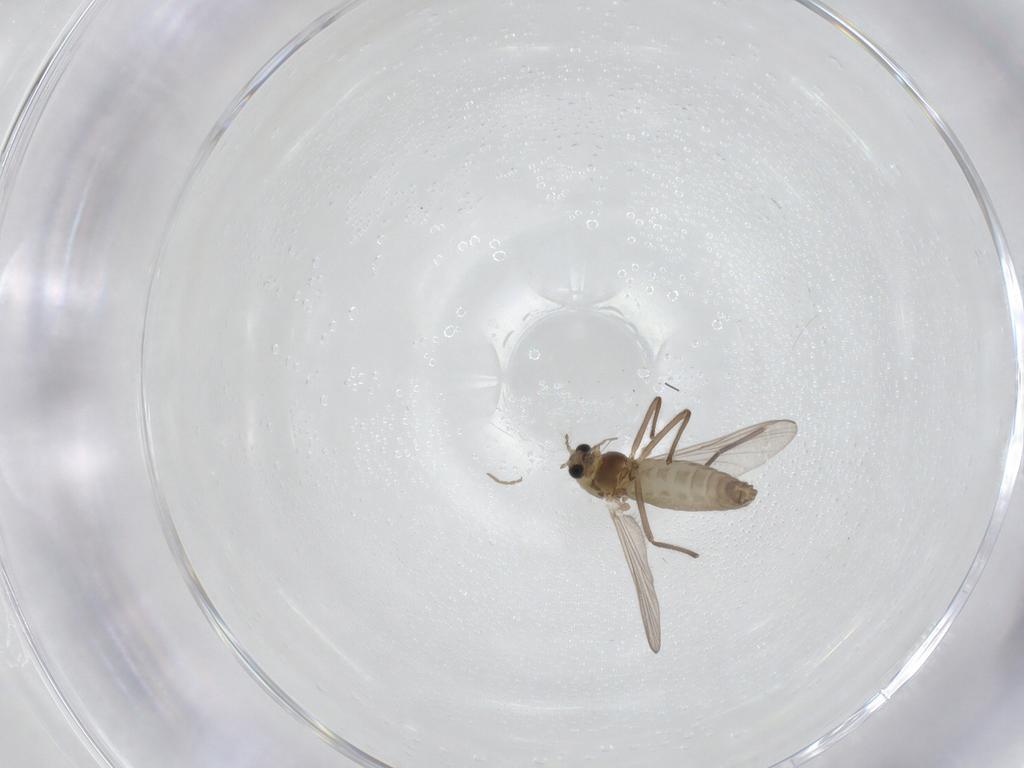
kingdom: Animalia
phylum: Arthropoda
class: Insecta
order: Diptera
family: Chironomidae
